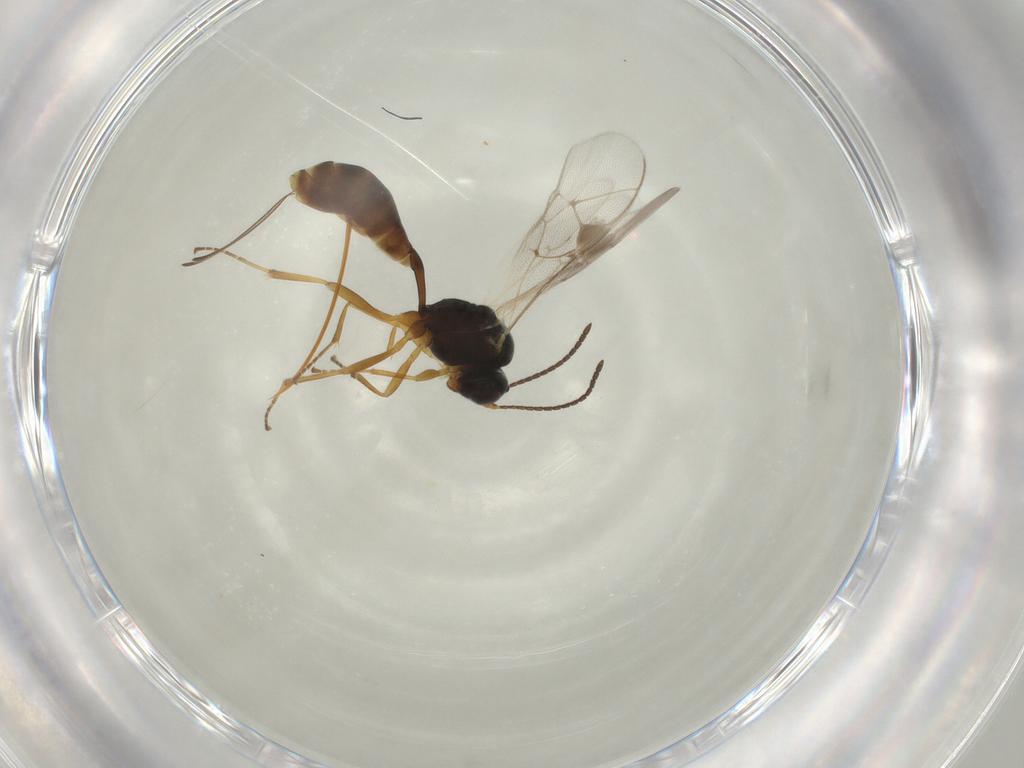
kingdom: Animalia
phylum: Arthropoda
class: Insecta
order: Hymenoptera
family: Ichneumonidae
